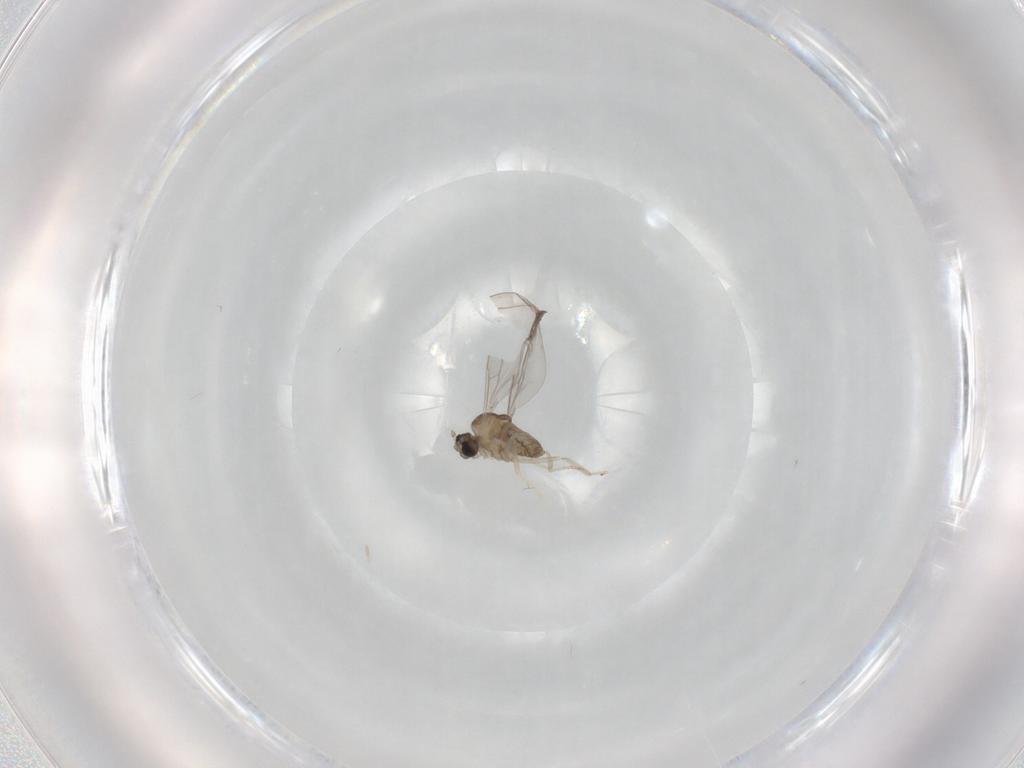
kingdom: Animalia
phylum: Arthropoda
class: Insecta
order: Diptera
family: Cecidomyiidae
